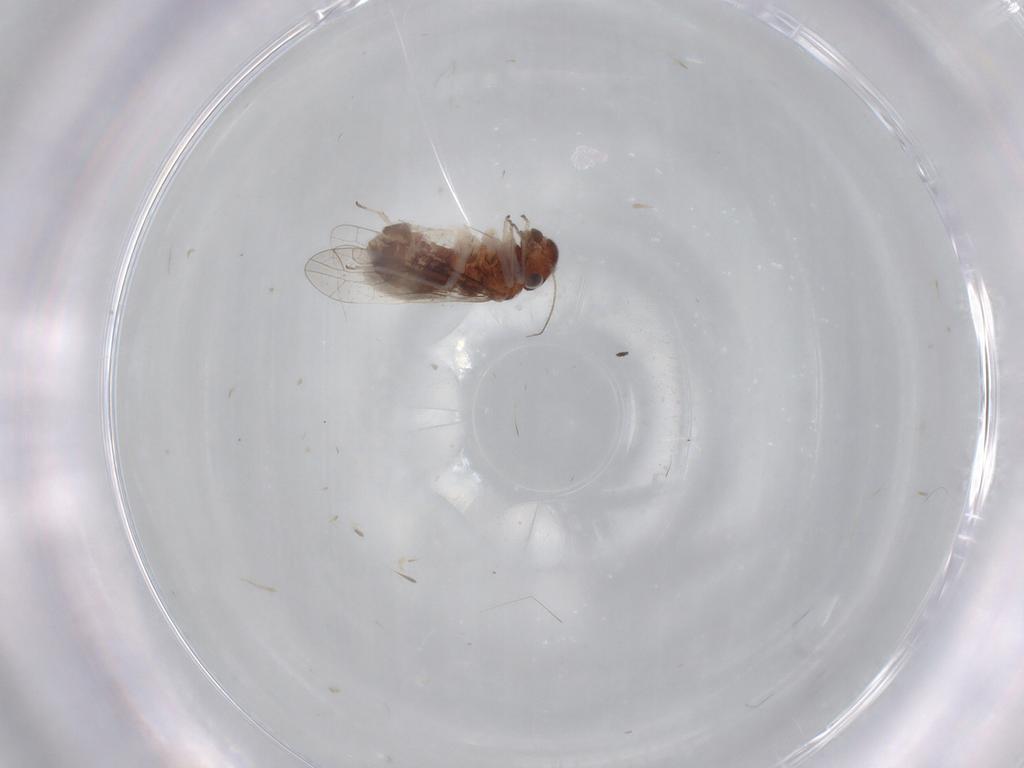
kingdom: Animalia
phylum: Arthropoda
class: Insecta
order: Psocodea
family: Caeciliusidae
